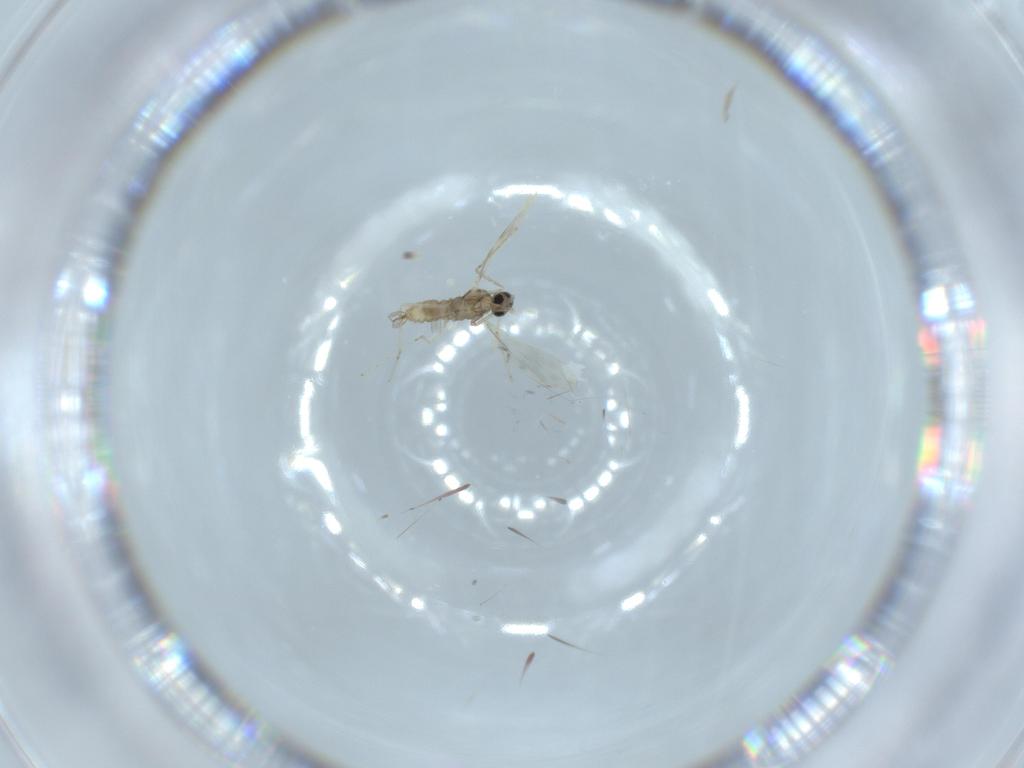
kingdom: Animalia
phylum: Arthropoda
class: Insecta
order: Diptera
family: Cecidomyiidae
